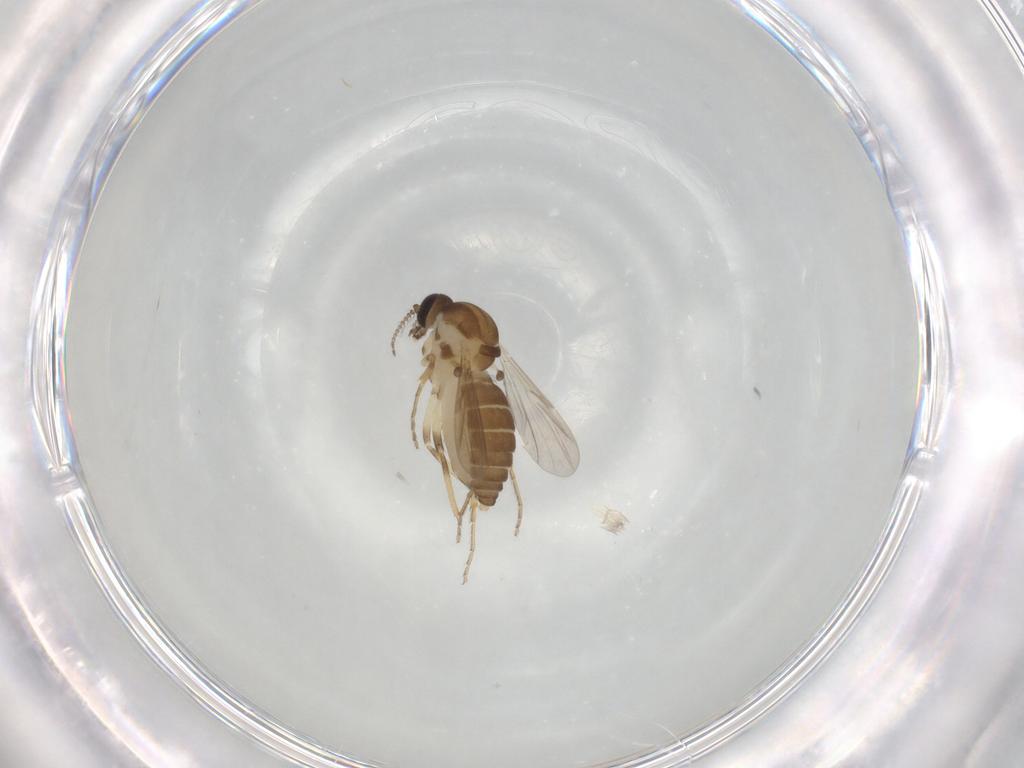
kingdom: Animalia
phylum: Arthropoda
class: Insecta
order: Diptera
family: Ceratopogonidae
